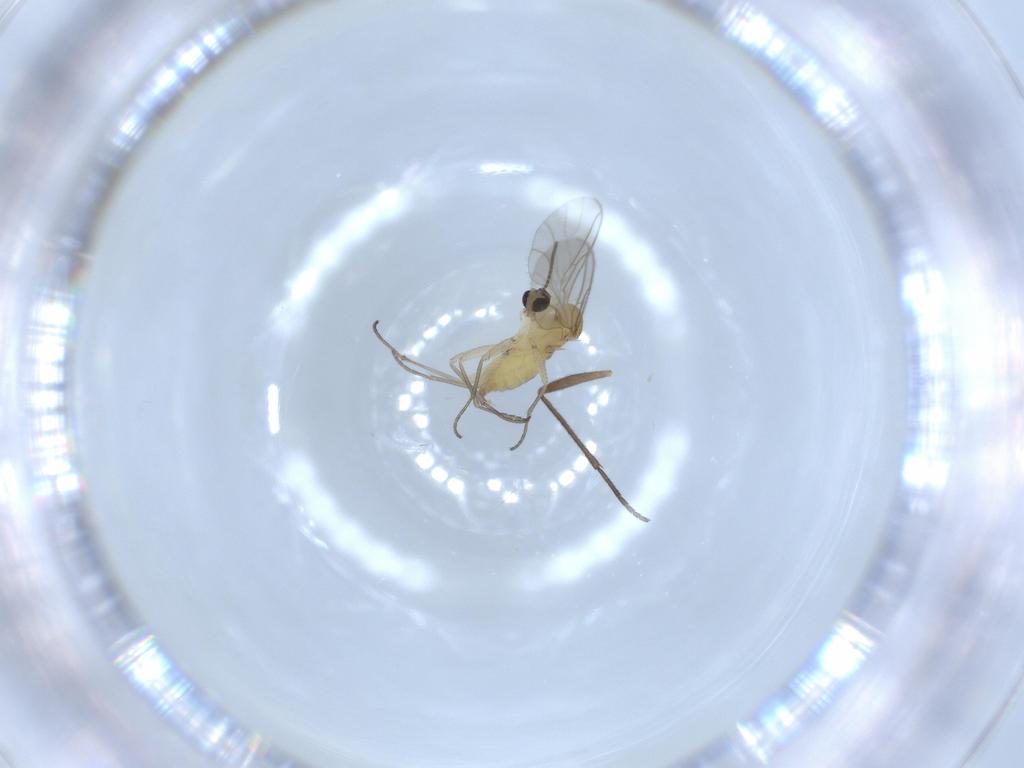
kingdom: Animalia
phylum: Arthropoda
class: Insecta
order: Diptera
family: Sciaridae
